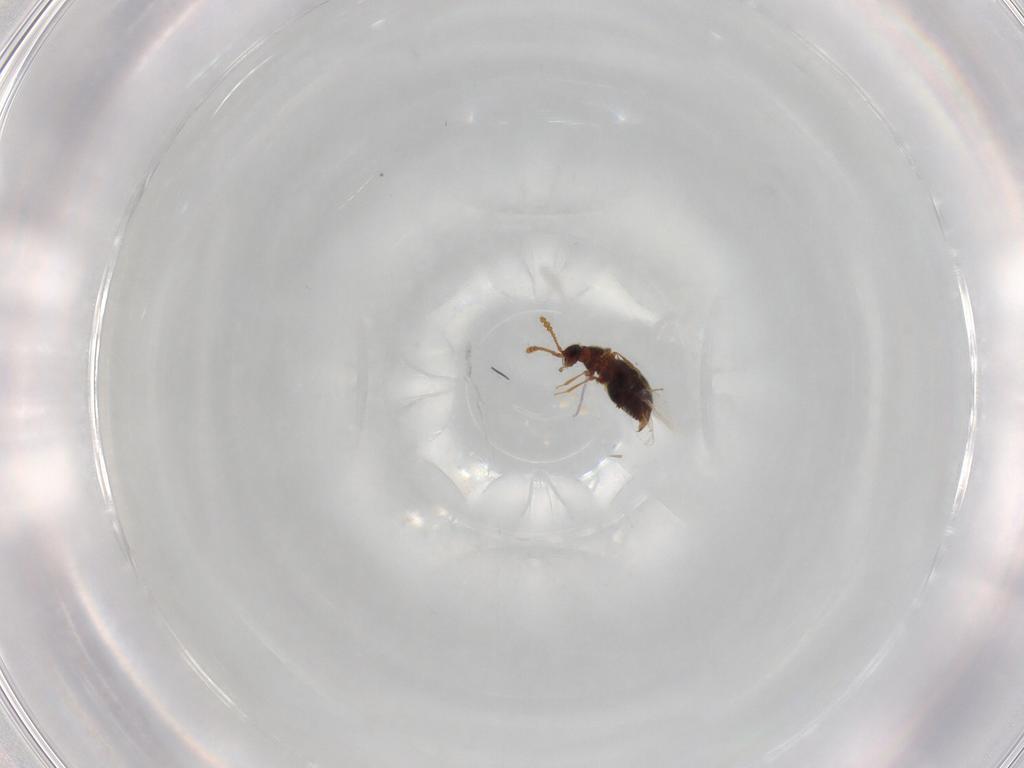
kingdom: Animalia
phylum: Arthropoda
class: Insecta
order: Coleoptera
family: Staphylinidae
